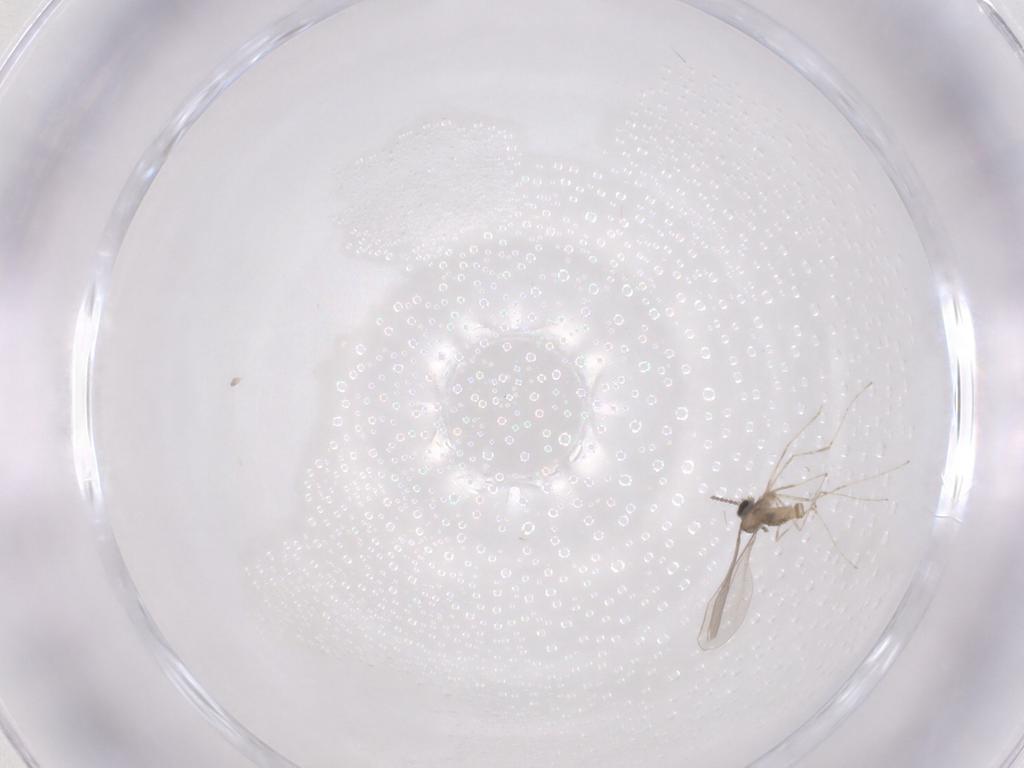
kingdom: Animalia
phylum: Arthropoda
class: Insecta
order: Diptera
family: Cecidomyiidae
